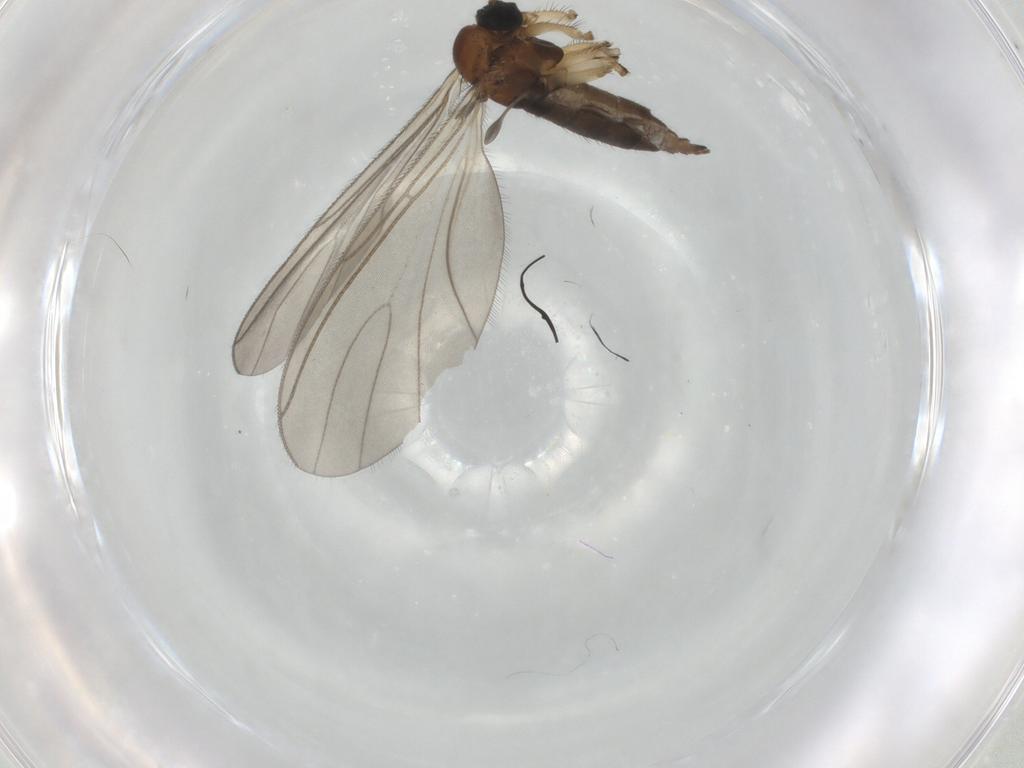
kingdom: Animalia
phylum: Arthropoda
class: Insecta
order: Diptera
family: Sciaridae
